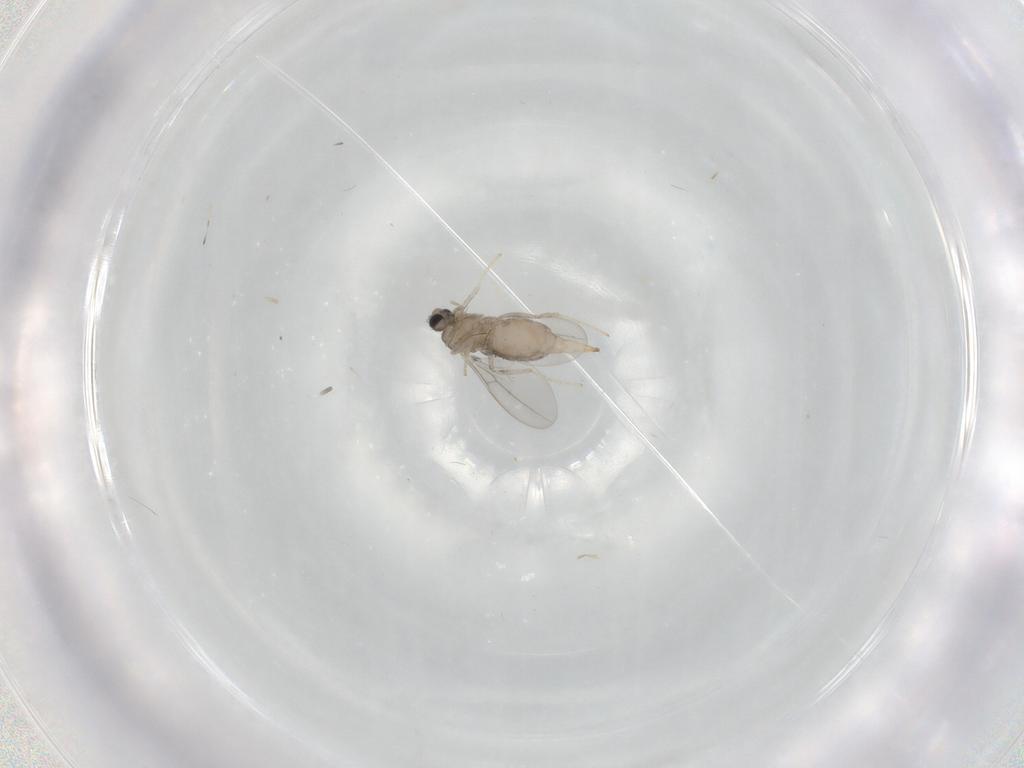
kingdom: Animalia
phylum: Arthropoda
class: Insecta
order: Diptera
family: Cecidomyiidae
